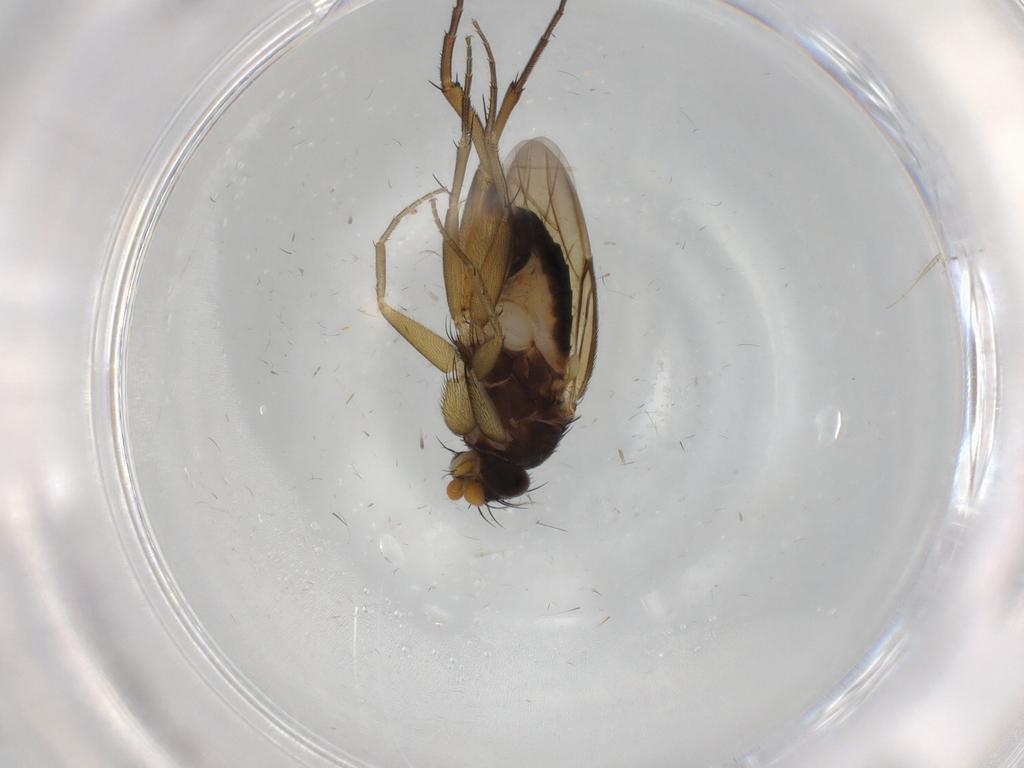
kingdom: Animalia
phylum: Arthropoda
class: Insecta
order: Diptera
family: Phoridae
